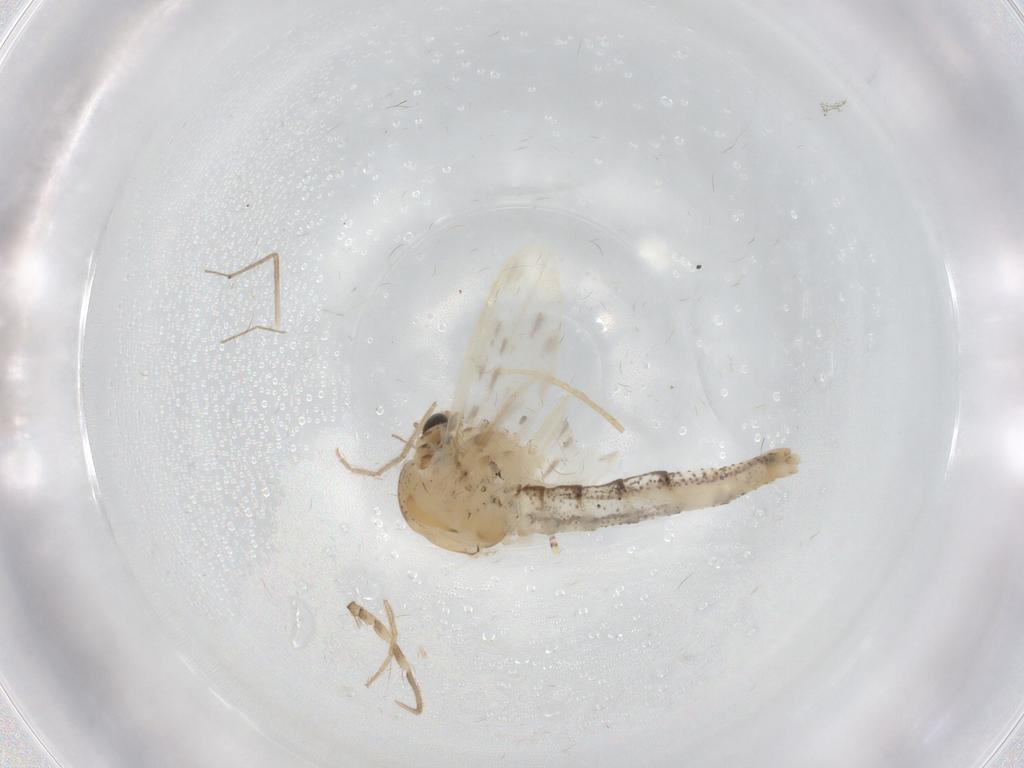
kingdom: Animalia
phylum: Arthropoda
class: Insecta
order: Diptera
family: Chaoboridae
